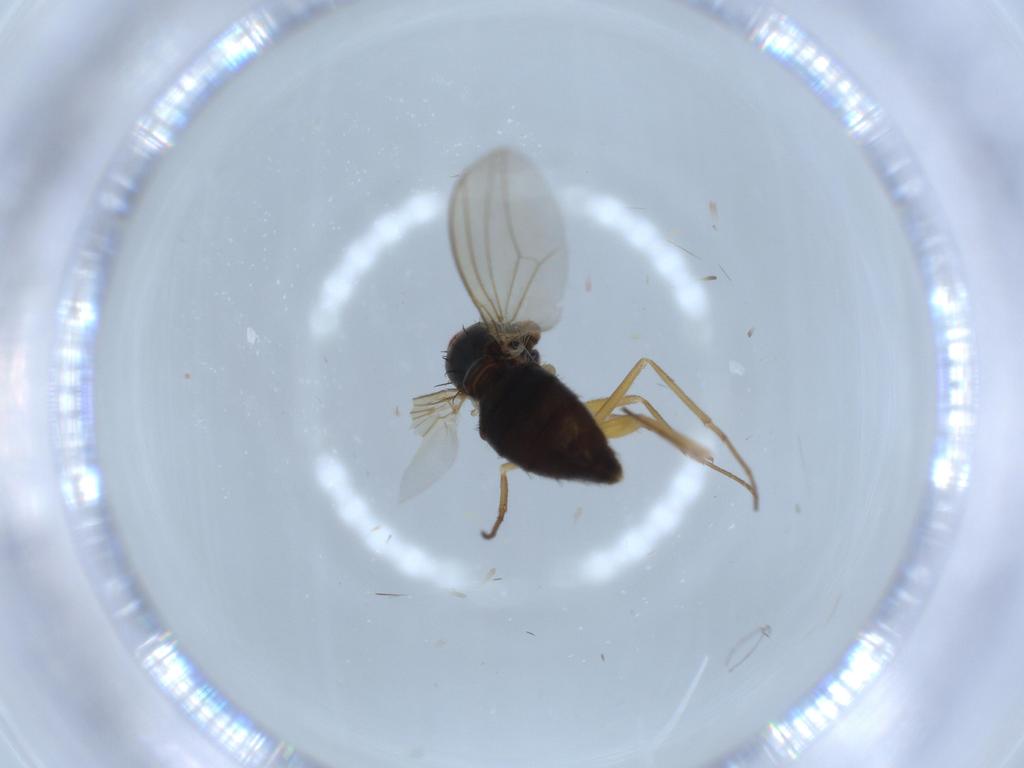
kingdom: Animalia
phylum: Arthropoda
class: Insecta
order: Diptera
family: Dolichopodidae
